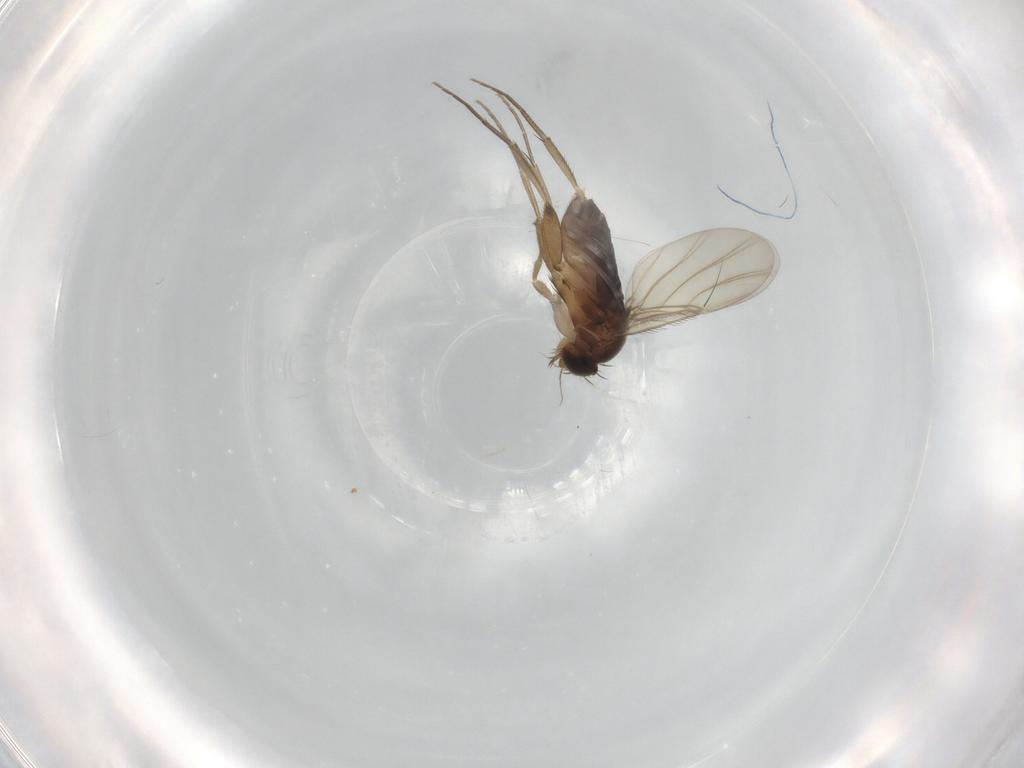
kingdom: Animalia
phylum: Arthropoda
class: Insecta
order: Diptera
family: Phoridae
